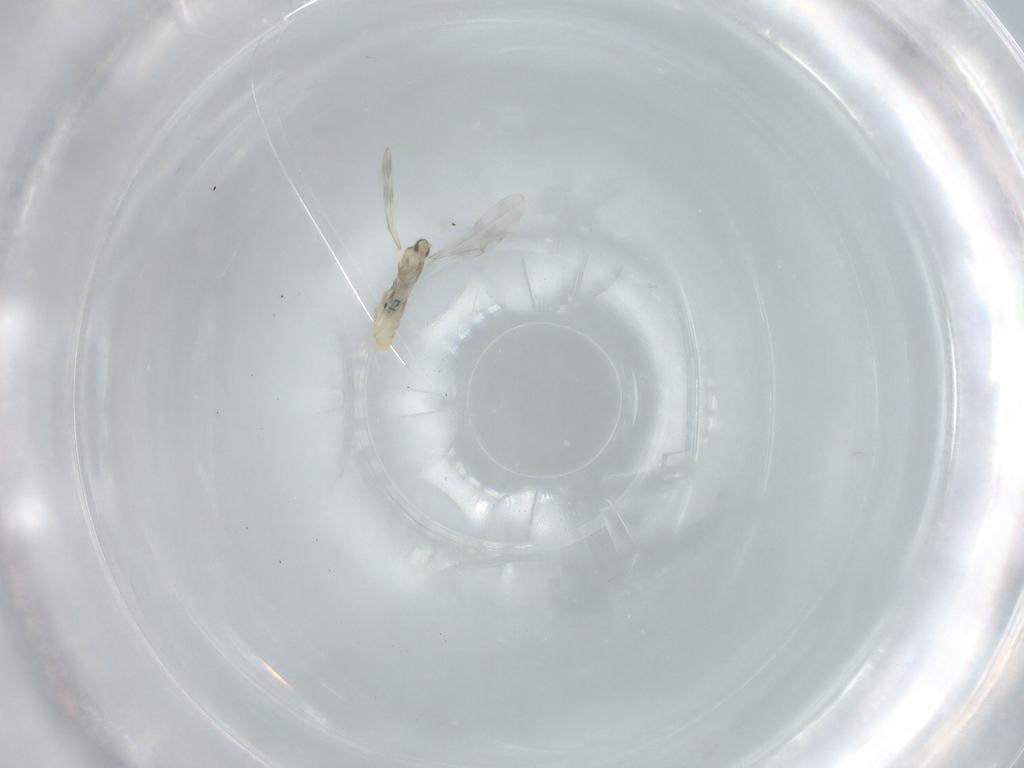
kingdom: Animalia
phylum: Arthropoda
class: Insecta
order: Diptera
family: Cecidomyiidae
